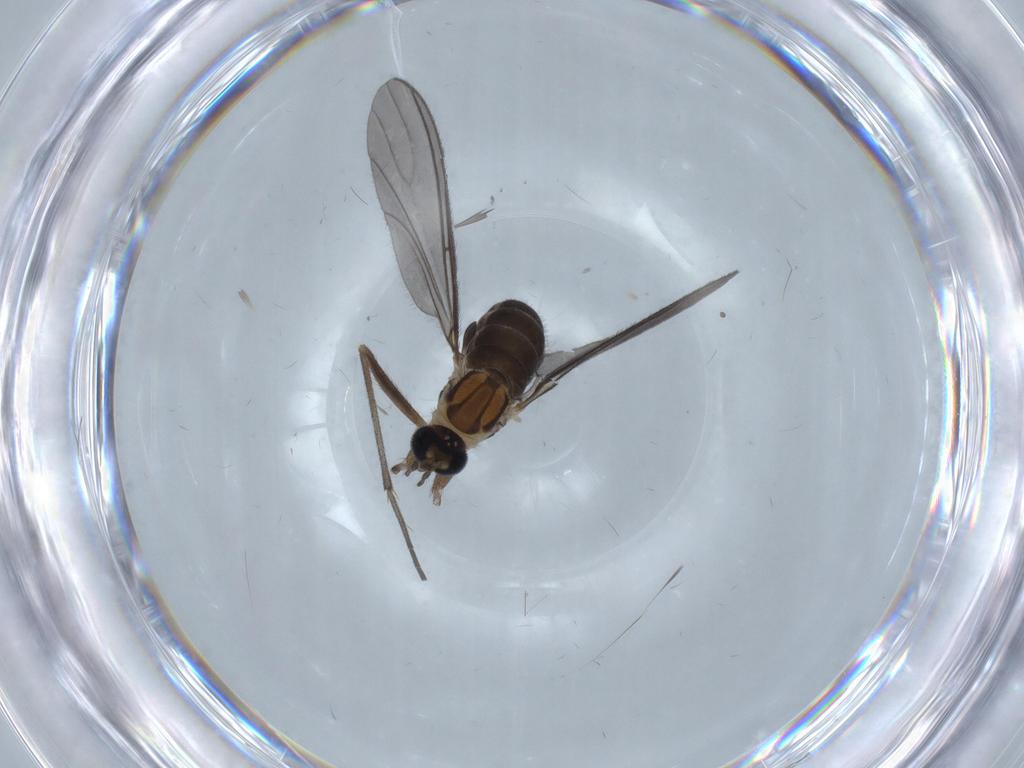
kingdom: Animalia
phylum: Arthropoda
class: Insecta
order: Diptera
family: Sciaridae
